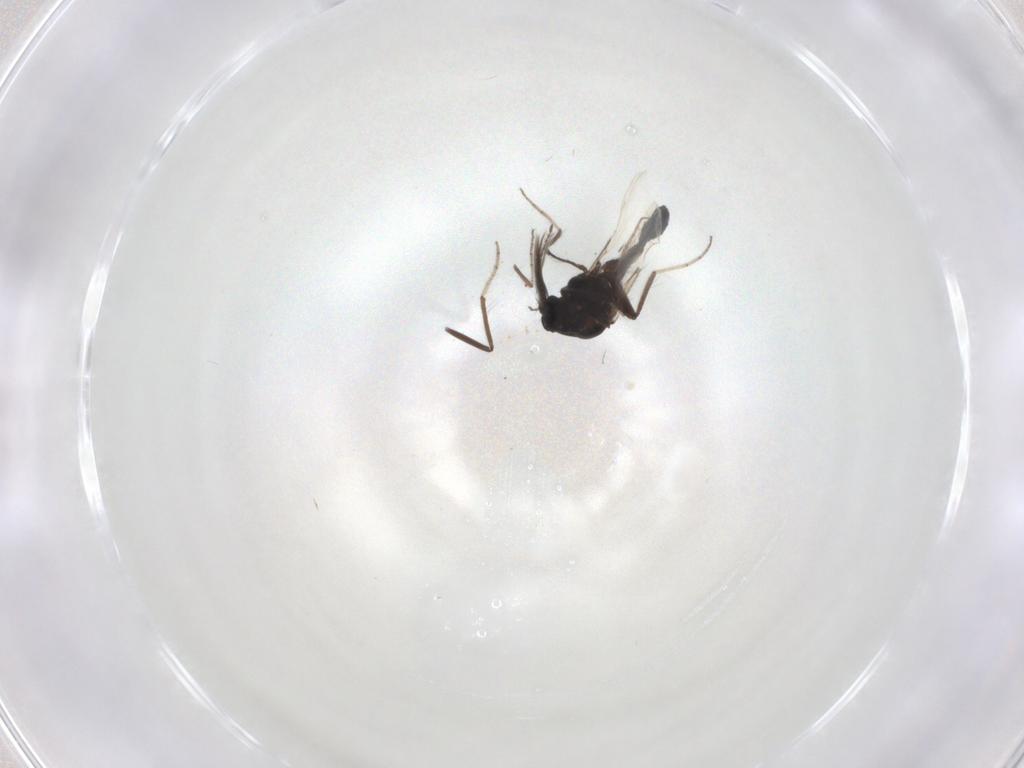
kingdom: Animalia
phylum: Arthropoda
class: Insecta
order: Diptera
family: Ceratopogonidae
